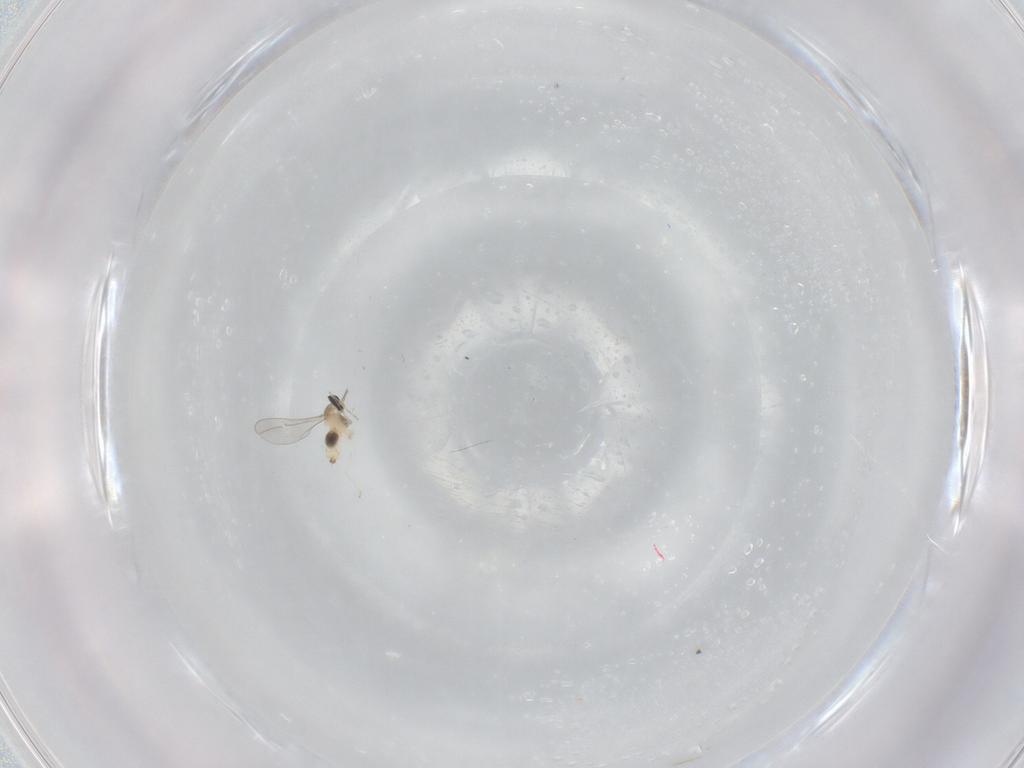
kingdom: Animalia
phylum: Arthropoda
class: Insecta
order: Diptera
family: Cecidomyiidae
